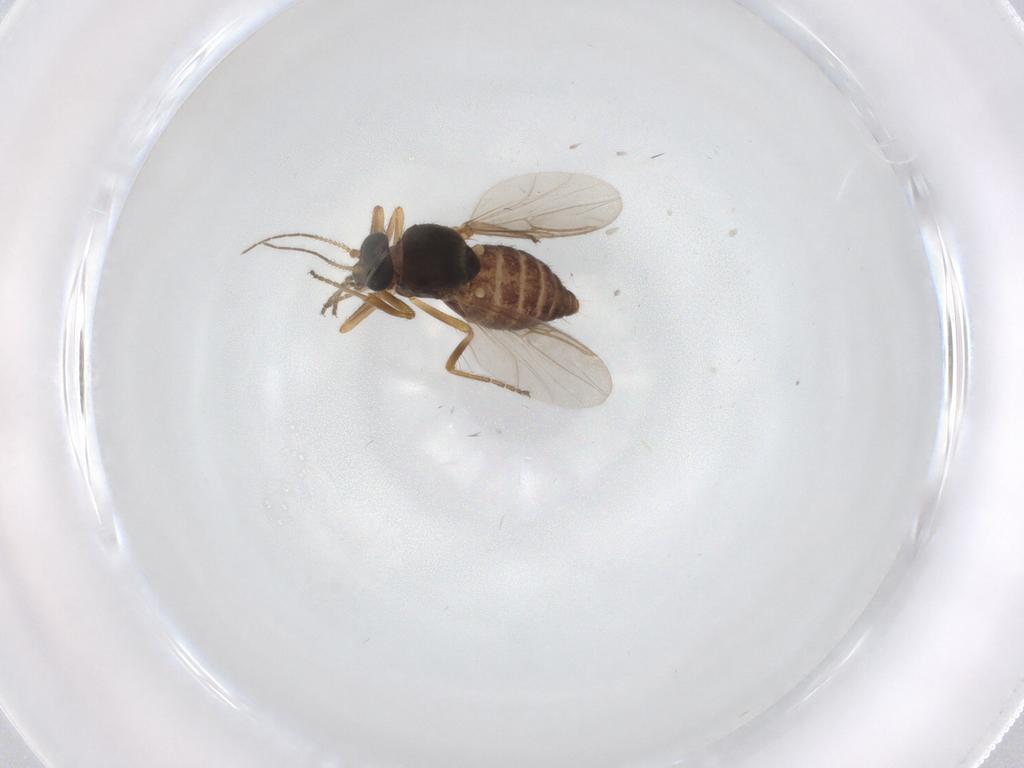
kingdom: Animalia
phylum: Arthropoda
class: Insecta
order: Diptera
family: Ceratopogonidae
